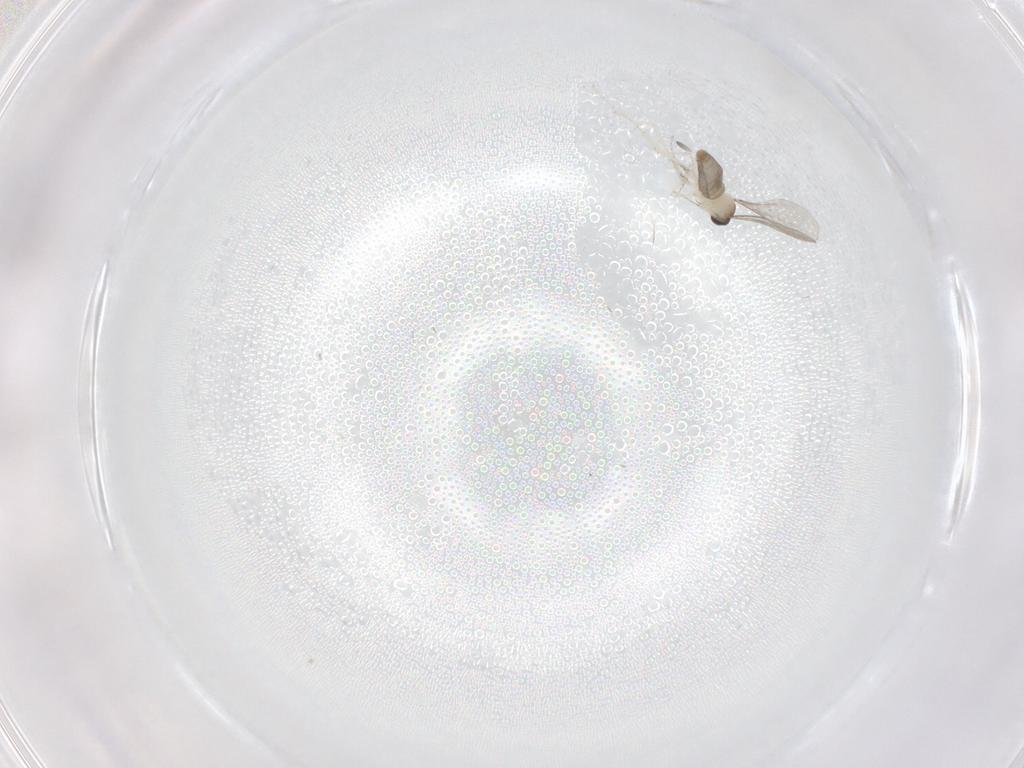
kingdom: Animalia
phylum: Arthropoda
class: Insecta
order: Diptera
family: Cecidomyiidae
